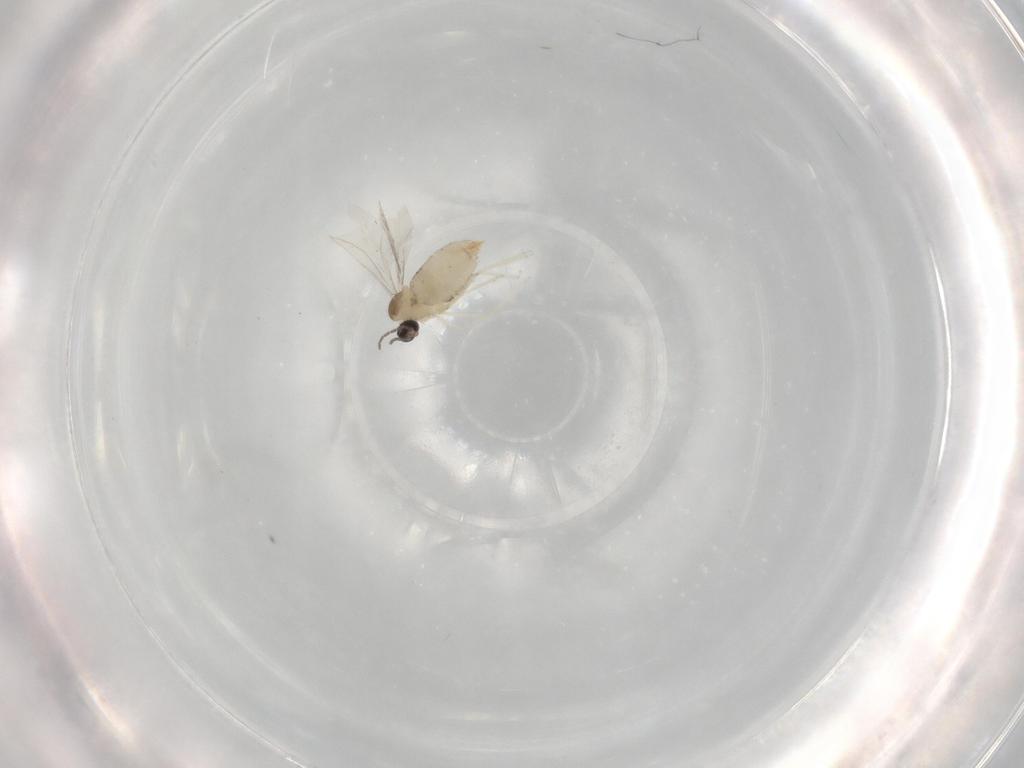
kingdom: Animalia
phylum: Arthropoda
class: Insecta
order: Diptera
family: Cecidomyiidae
